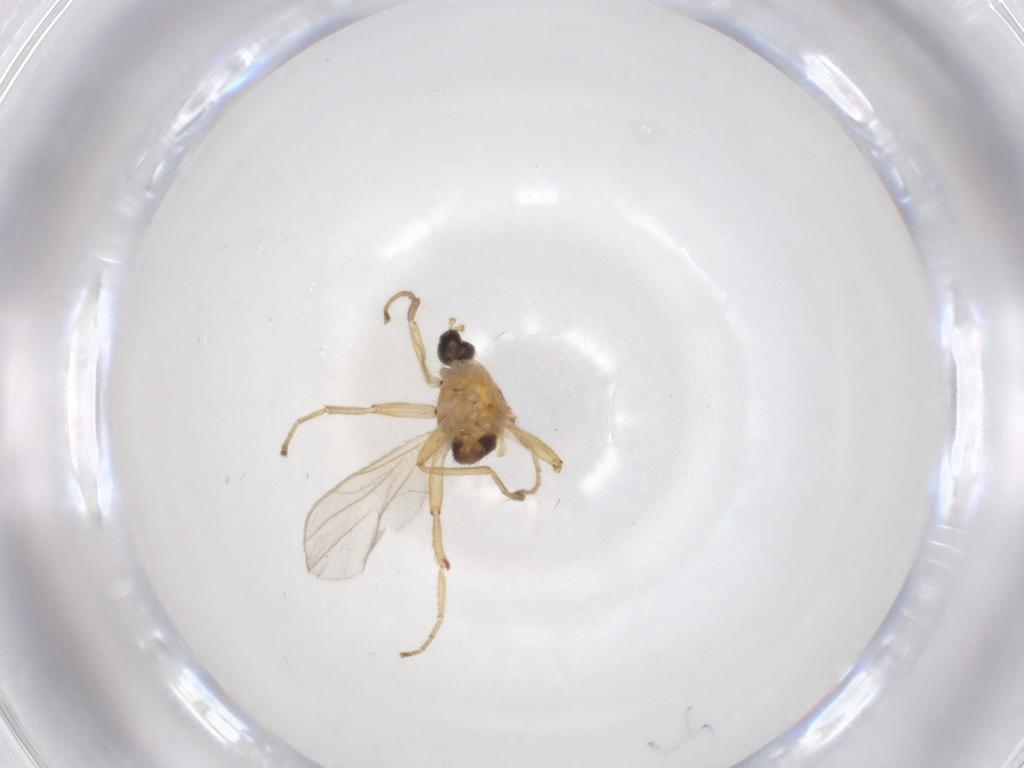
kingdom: Animalia
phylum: Arthropoda
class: Insecta
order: Diptera
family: Hybotidae
